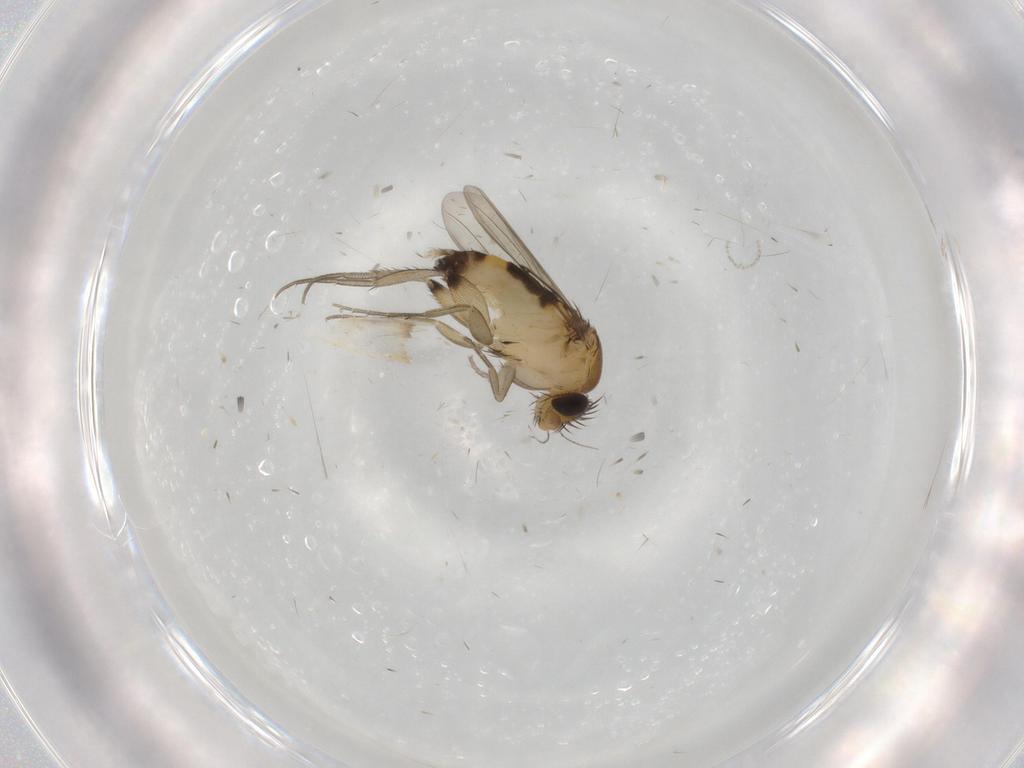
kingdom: Animalia
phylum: Arthropoda
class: Insecta
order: Diptera
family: Phoridae
